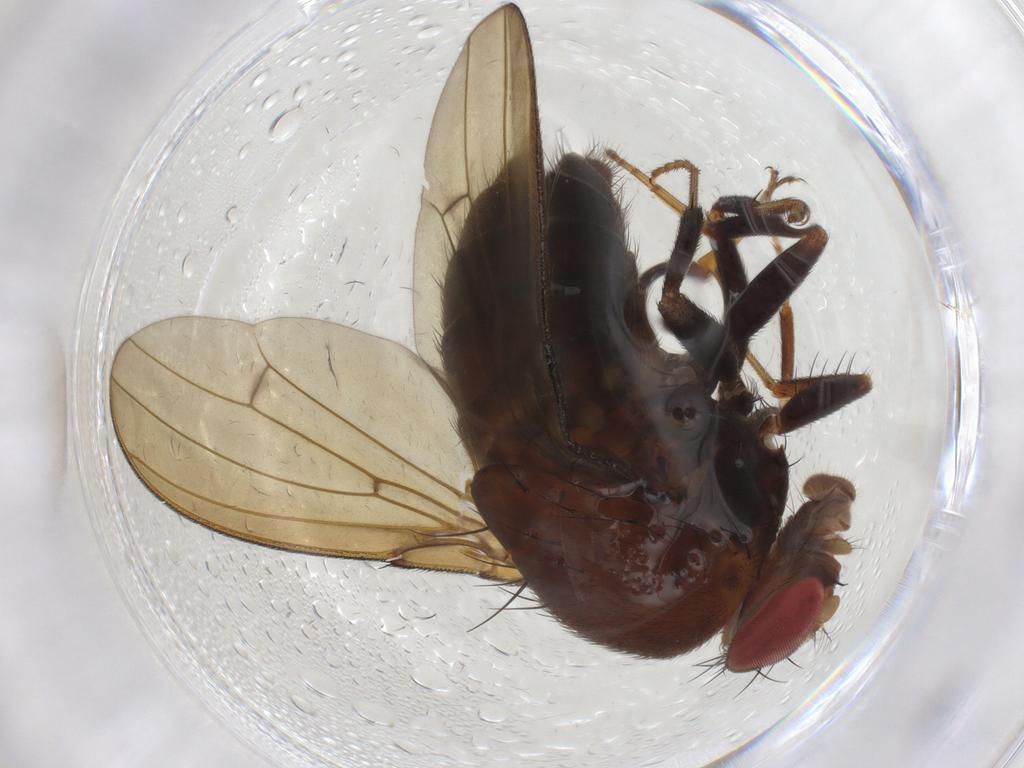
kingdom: Animalia
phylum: Arthropoda
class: Insecta
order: Diptera
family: Drosophilidae
